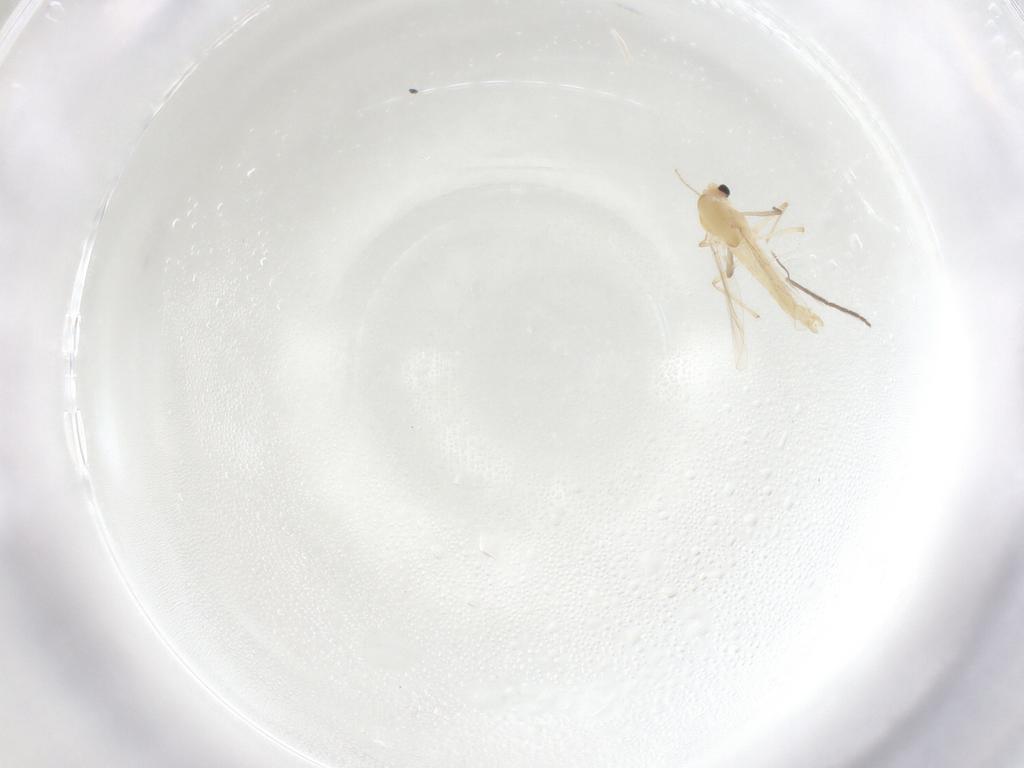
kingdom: Animalia
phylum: Arthropoda
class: Insecta
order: Diptera
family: Chironomidae
